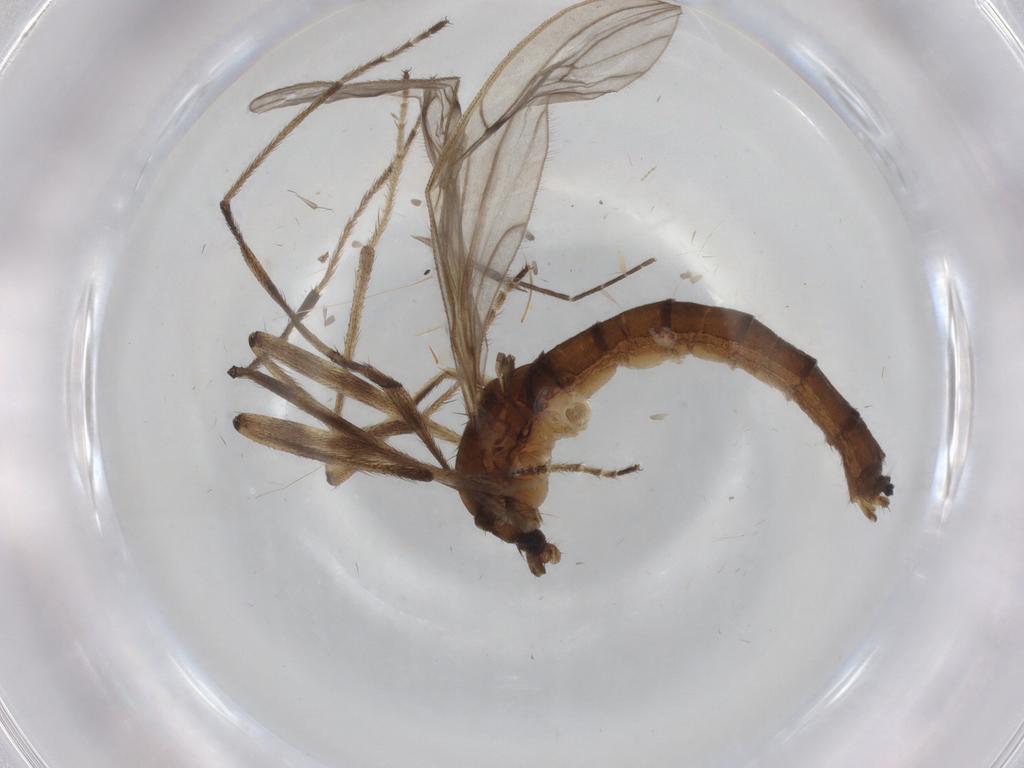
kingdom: Animalia
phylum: Arthropoda
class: Insecta
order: Diptera
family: Limoniidae
